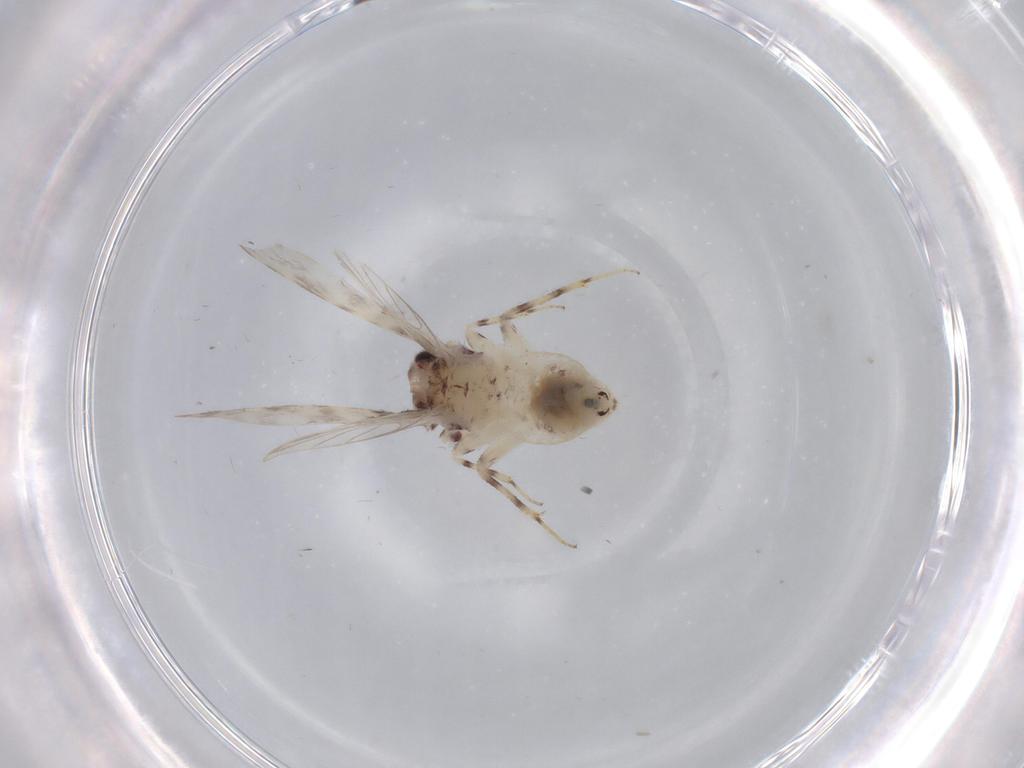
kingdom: Animalia
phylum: Arthropoda
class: Insecta
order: Psocodea
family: Lepidopsocidae
